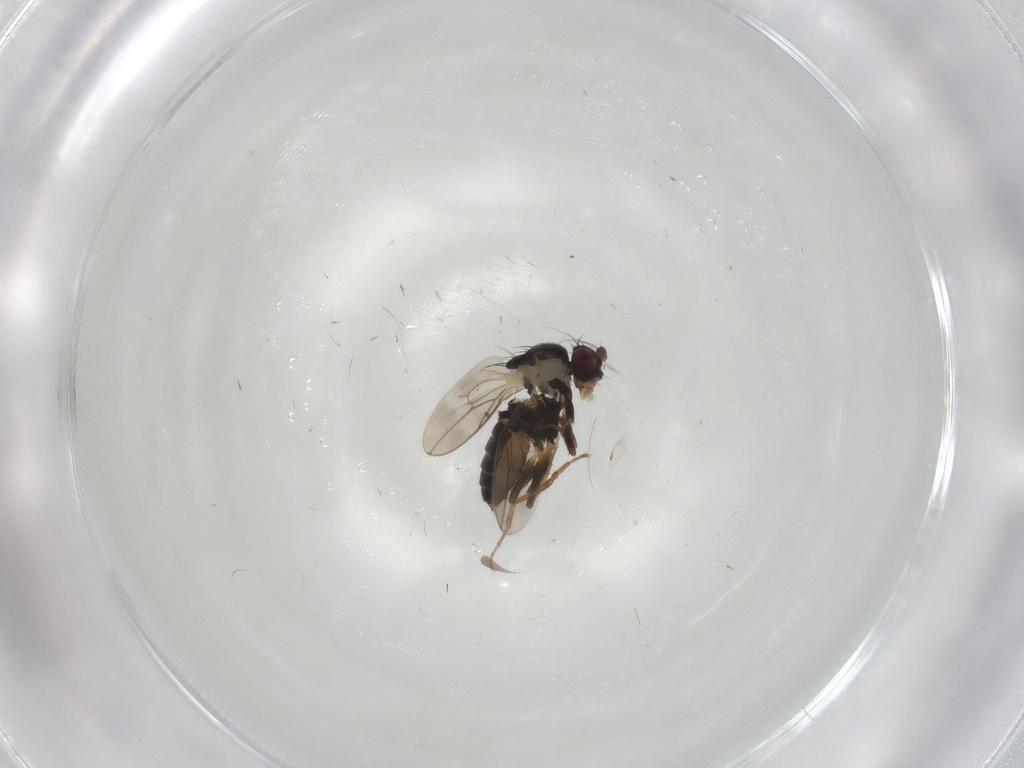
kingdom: Animalia
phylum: Arthropoda
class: Insecta
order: Diptera
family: Sphaeroceridae
